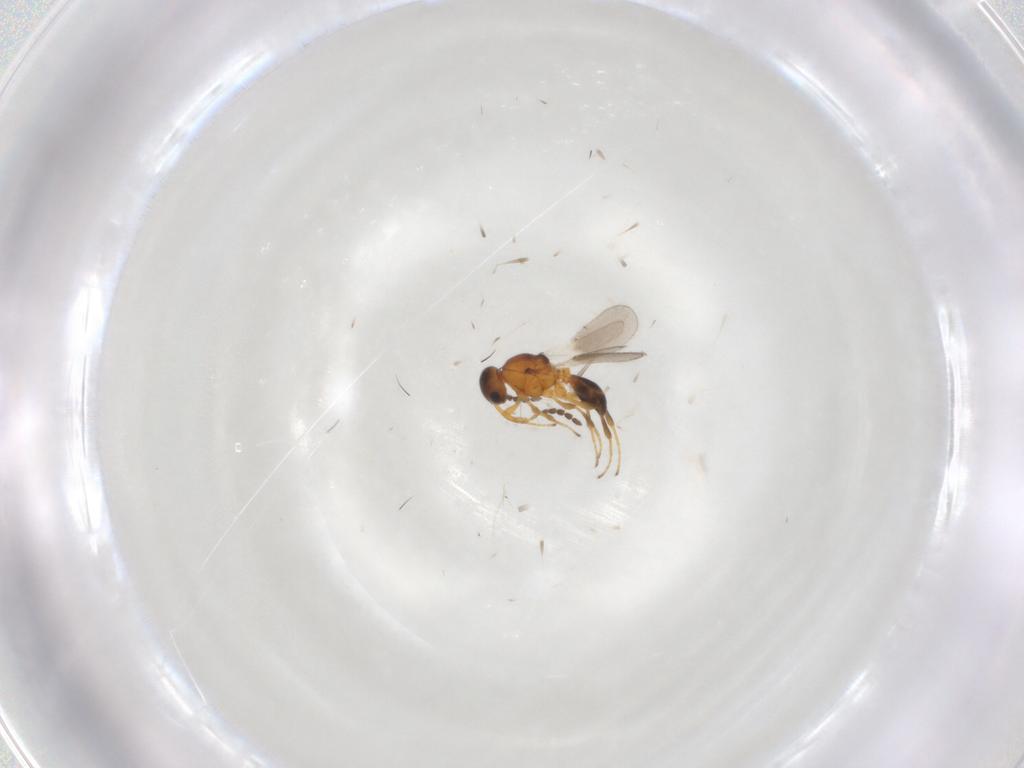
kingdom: Animalia
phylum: Arthropoda
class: Insecta
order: Hymenoptera
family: Platygastridae
